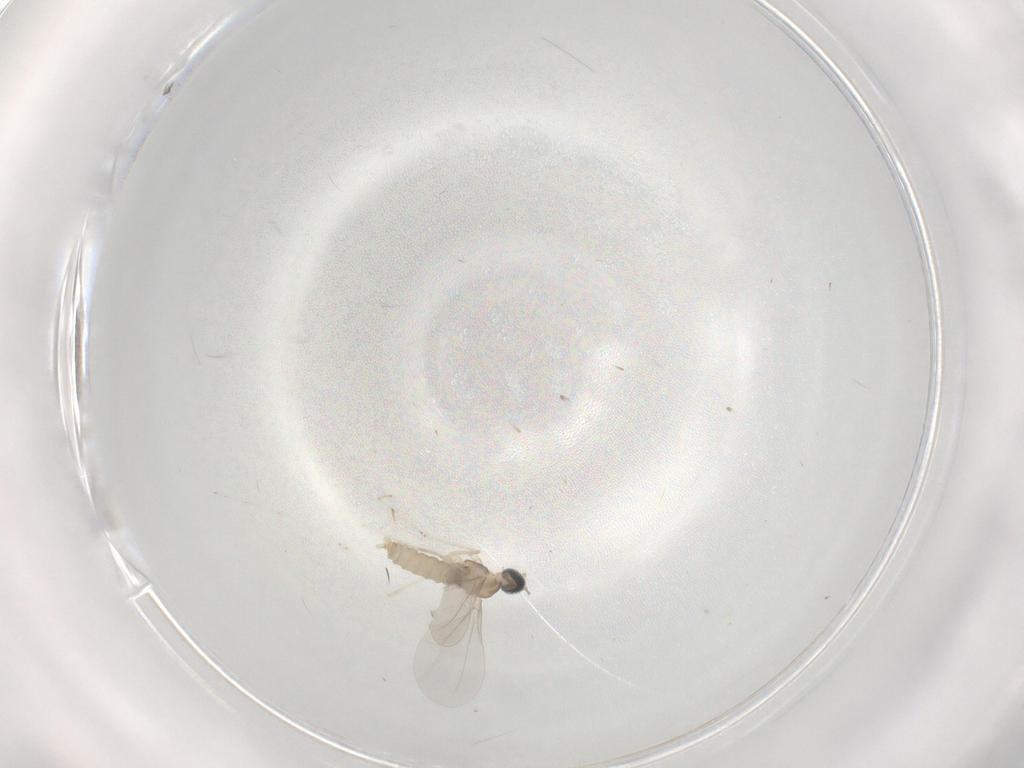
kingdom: Animalia
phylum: Arthropoda
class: Insecta
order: Diptera
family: Cecidomyiidae
